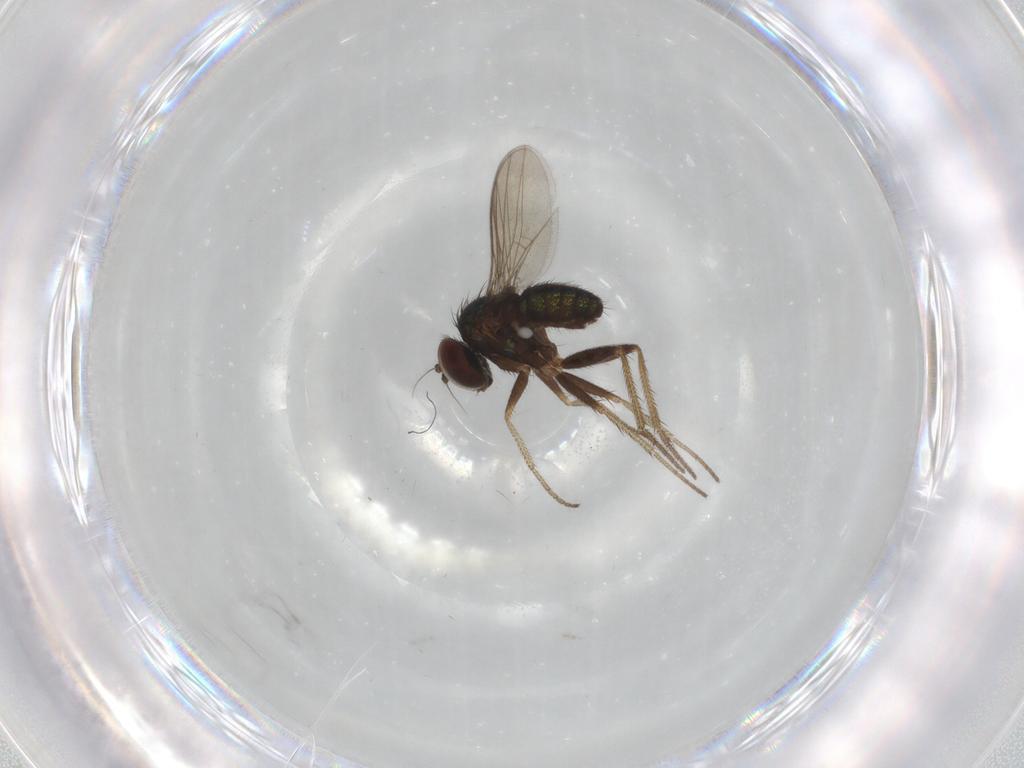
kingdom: Animalia
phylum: Arthropoda
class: Insecta
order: Diptera
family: Dolichopodidae
